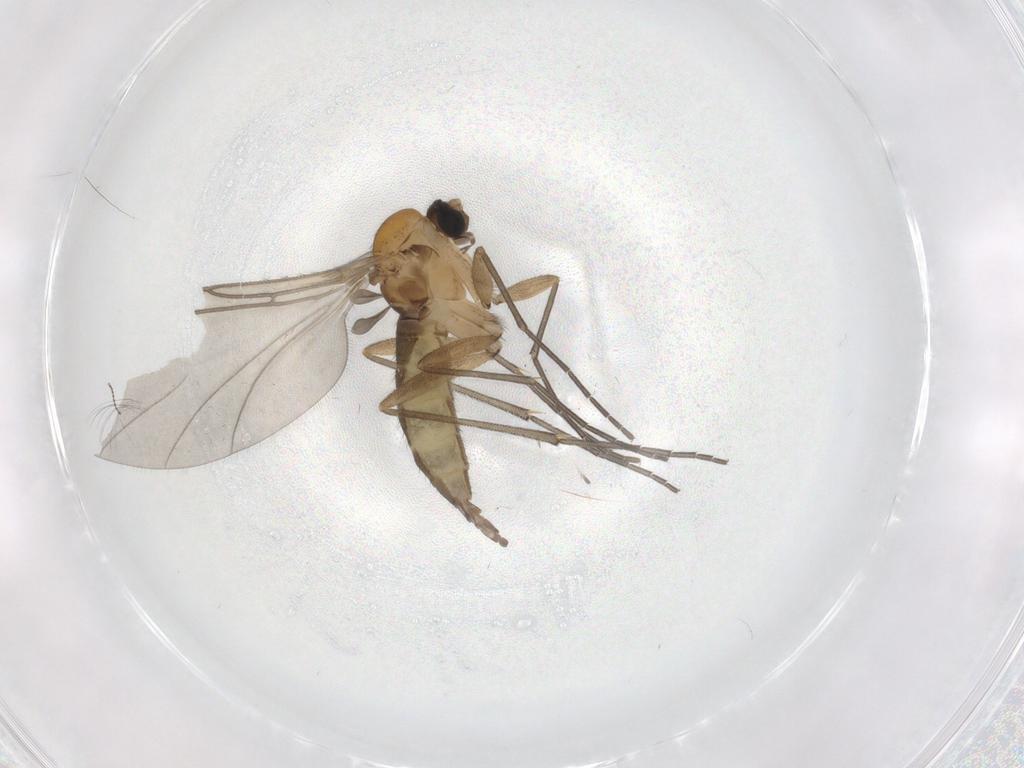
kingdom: Animalia
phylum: Arthropoda
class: Insecta
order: Diptera
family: Sciaridae
